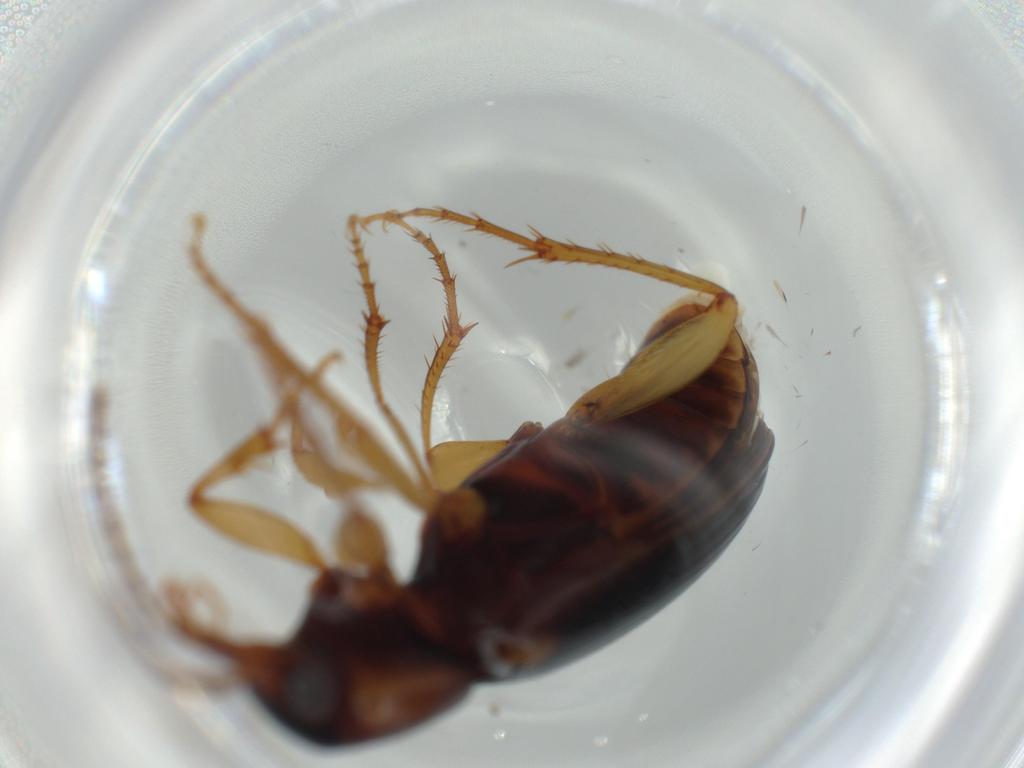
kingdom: Animalia
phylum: Arthropoda
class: Insecta
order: Coleoptera
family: Carabidae
